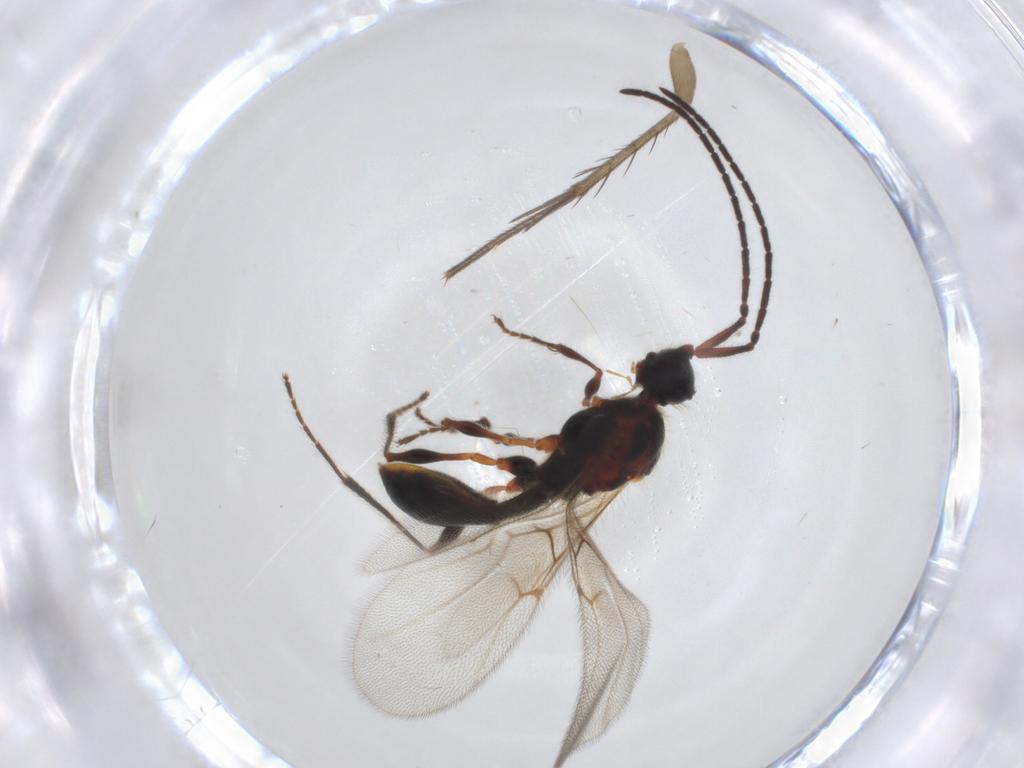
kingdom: Animalia
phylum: Arthropoda
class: Insecta
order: Hymenoptera
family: Diapriidae
